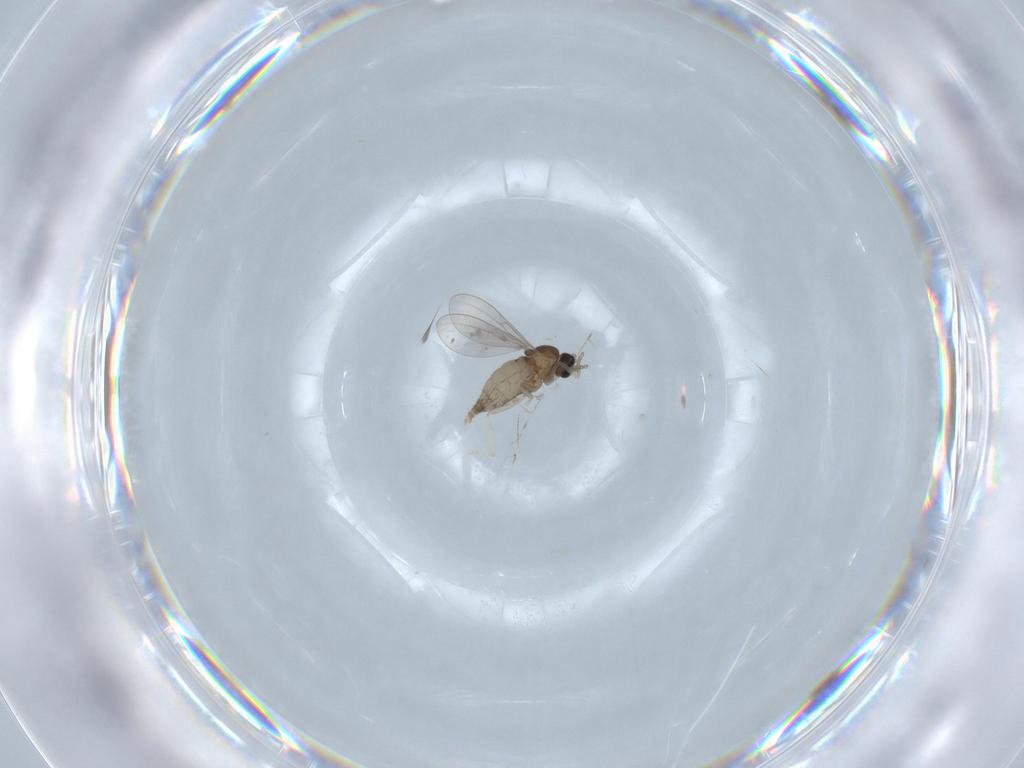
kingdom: Animalia
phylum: Arthropoda
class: Insecta
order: Diptera
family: Cecidomyiidae
